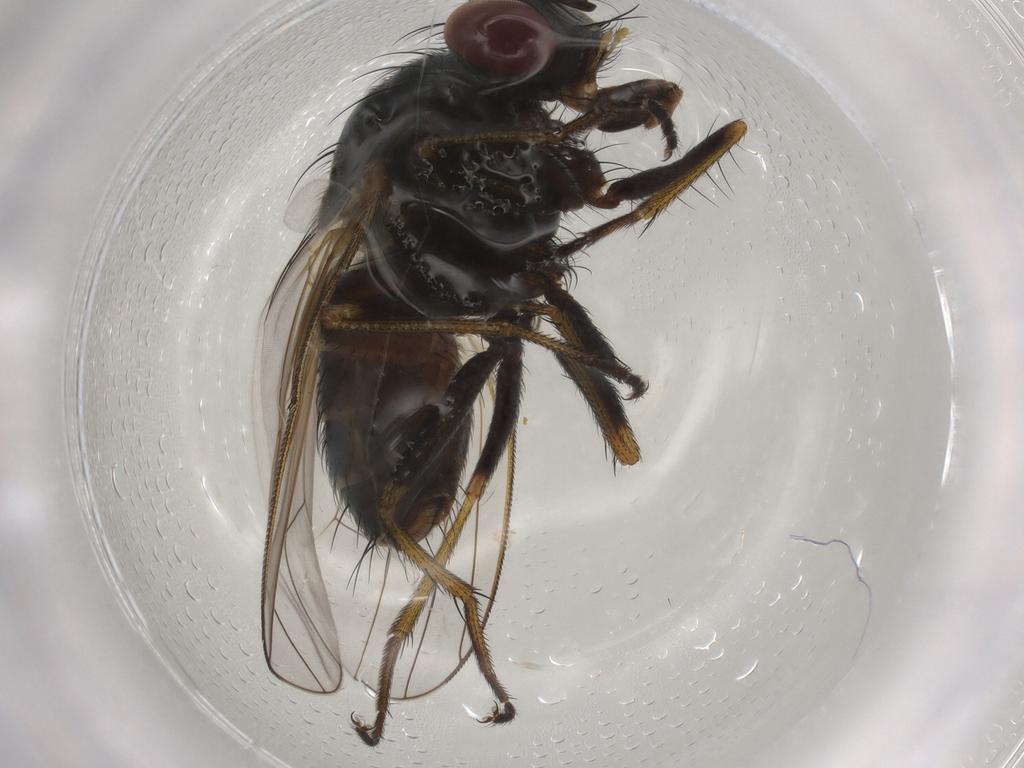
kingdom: Animalia
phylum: Arthropoda
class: Insecta
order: Diptera
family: Muscidae
